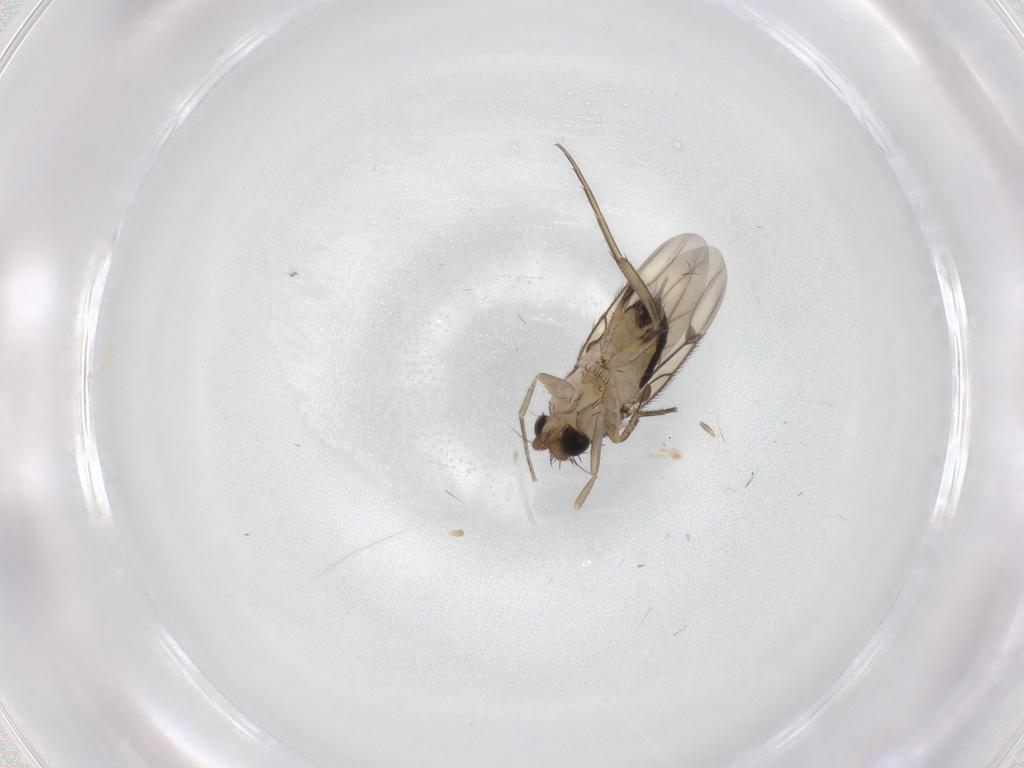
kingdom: Animalia
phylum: Arthropoda
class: Insecta
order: Diptera
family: Phoridae
